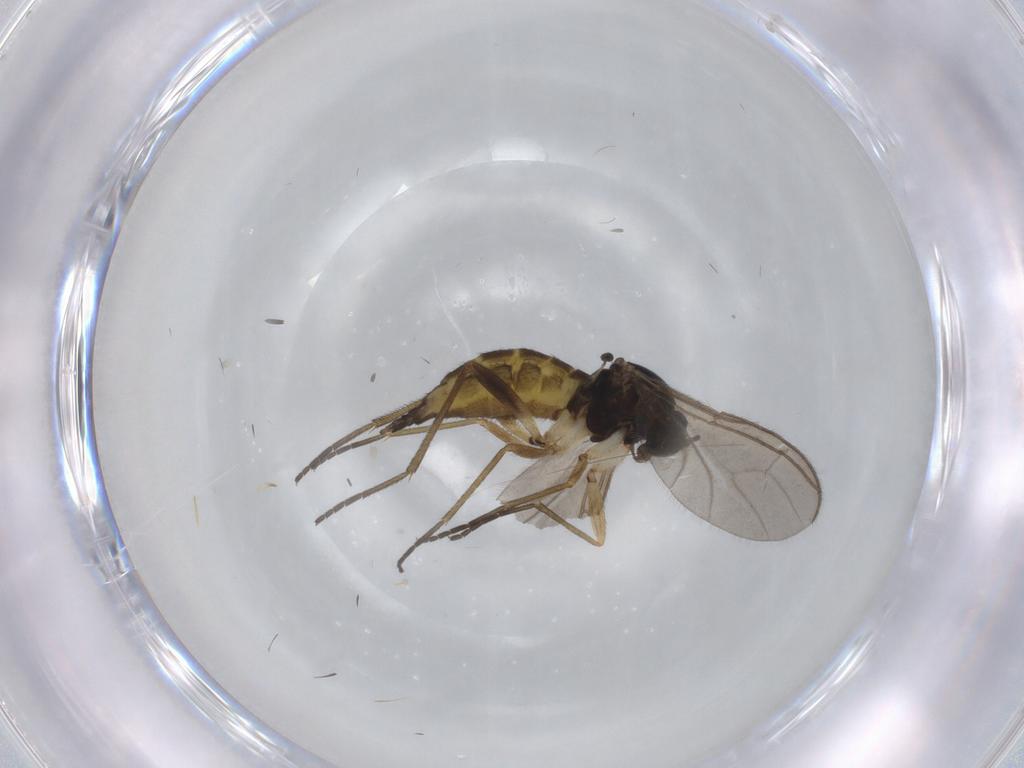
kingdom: Animalia
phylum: Arthropoda
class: Insecta
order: Diptera
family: Sciaridae
